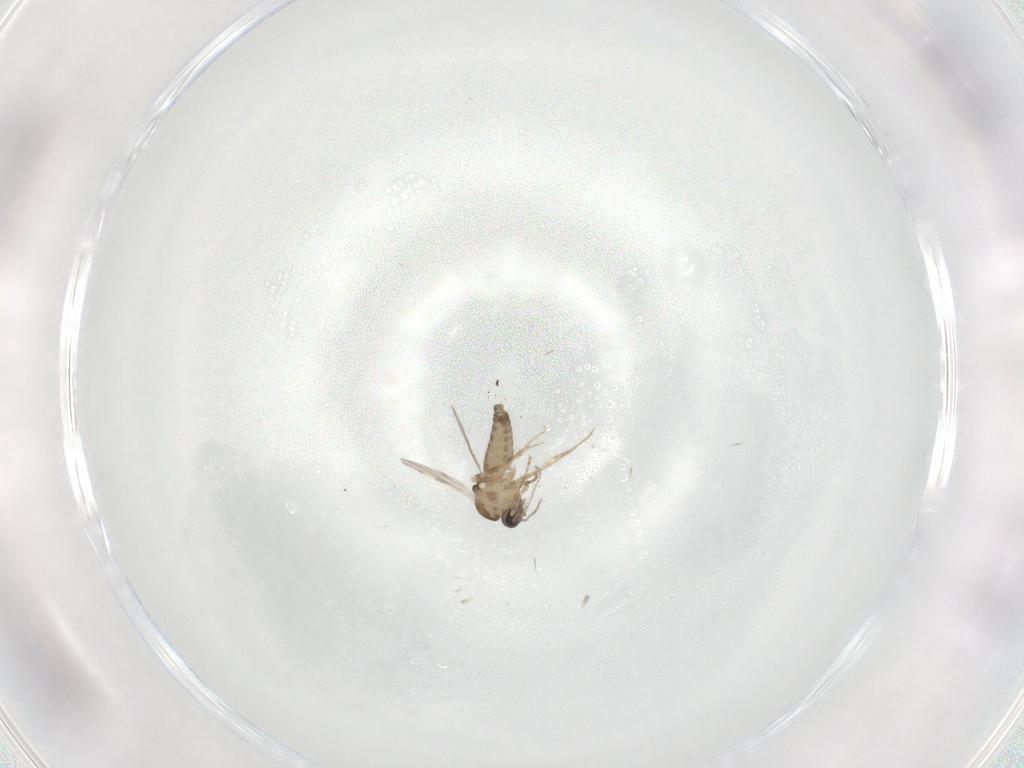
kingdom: Animalia
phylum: Arthropoda
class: Insecta
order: Diptera
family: Ceratopogonidae
